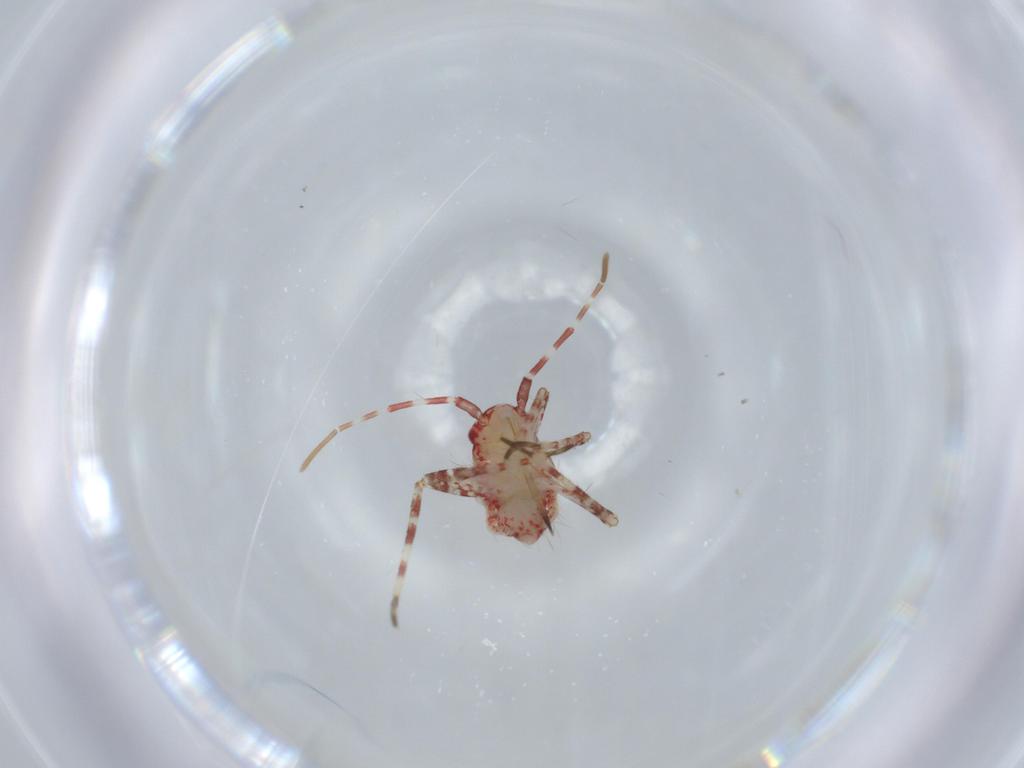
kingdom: Animalia
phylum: Arthropoda
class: Insecta
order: Hemiptera
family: Miridae
